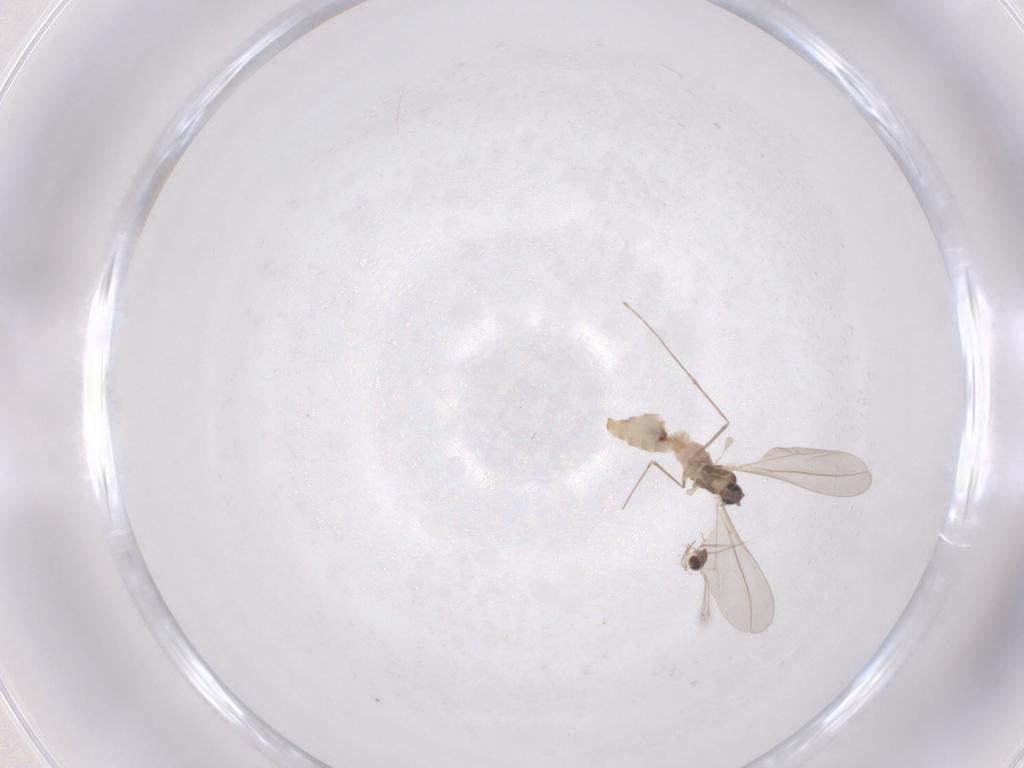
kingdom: Animalia
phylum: Arthropoda
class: Insecta
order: Diptera
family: Cecidomyiidae
